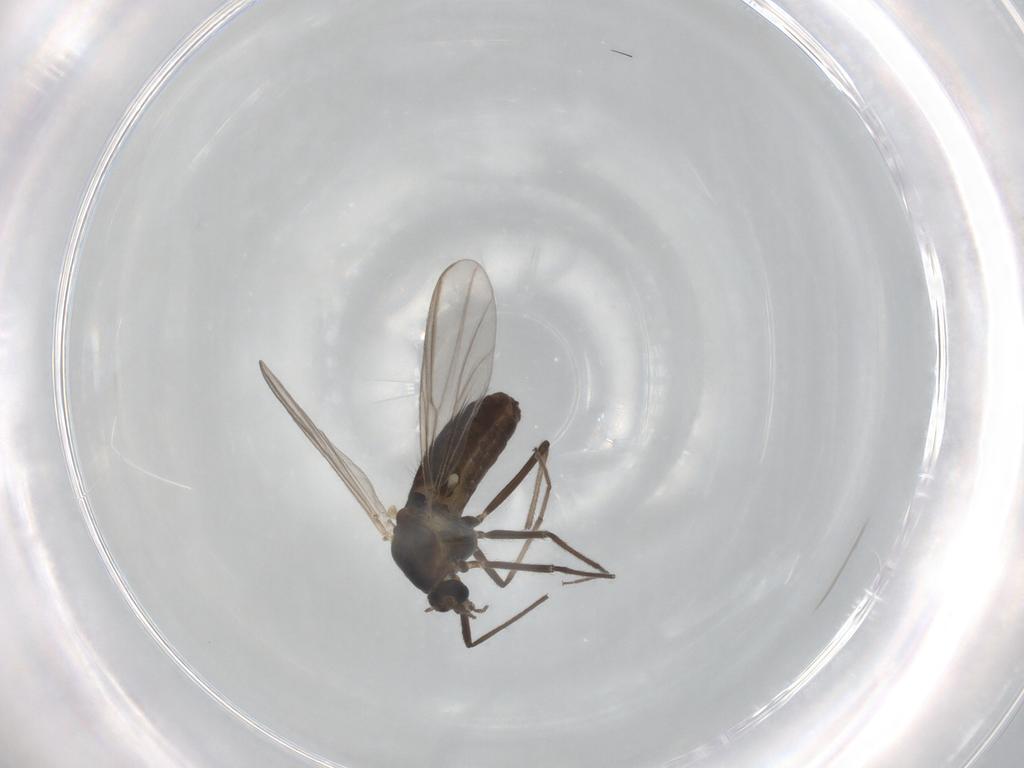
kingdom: Animalia
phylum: Arthropoda
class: Insecta
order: Diptera
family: Chironomidae
